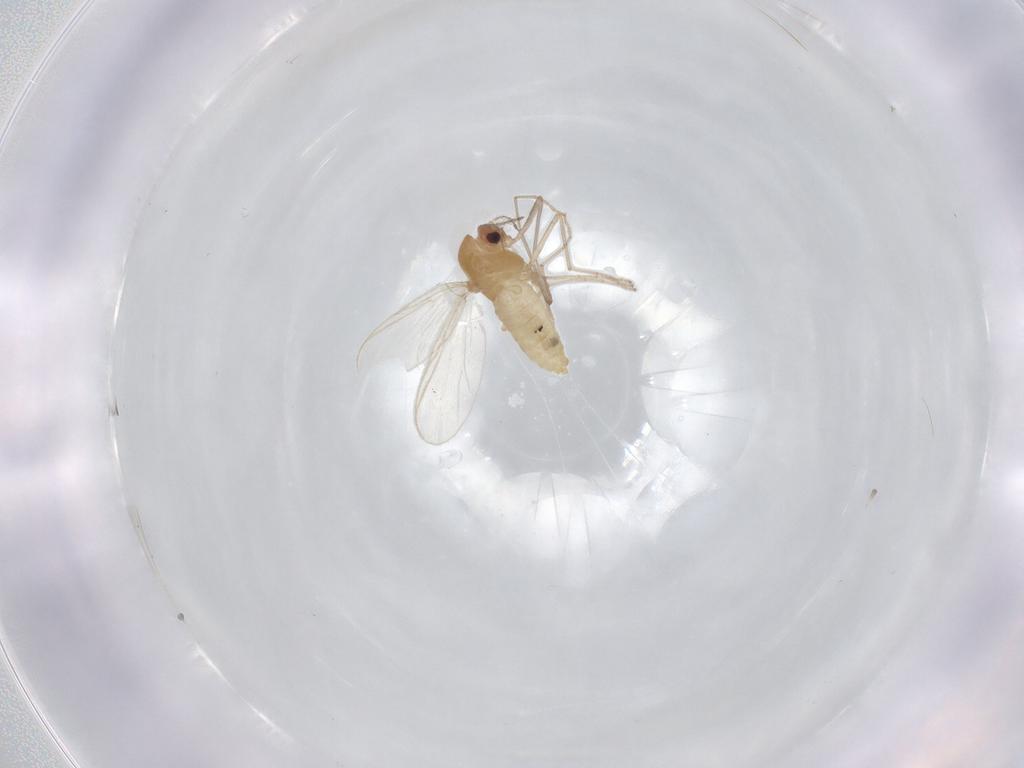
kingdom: Animalia
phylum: Arthropoda
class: Insecta
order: Diptera
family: Chironomidae
